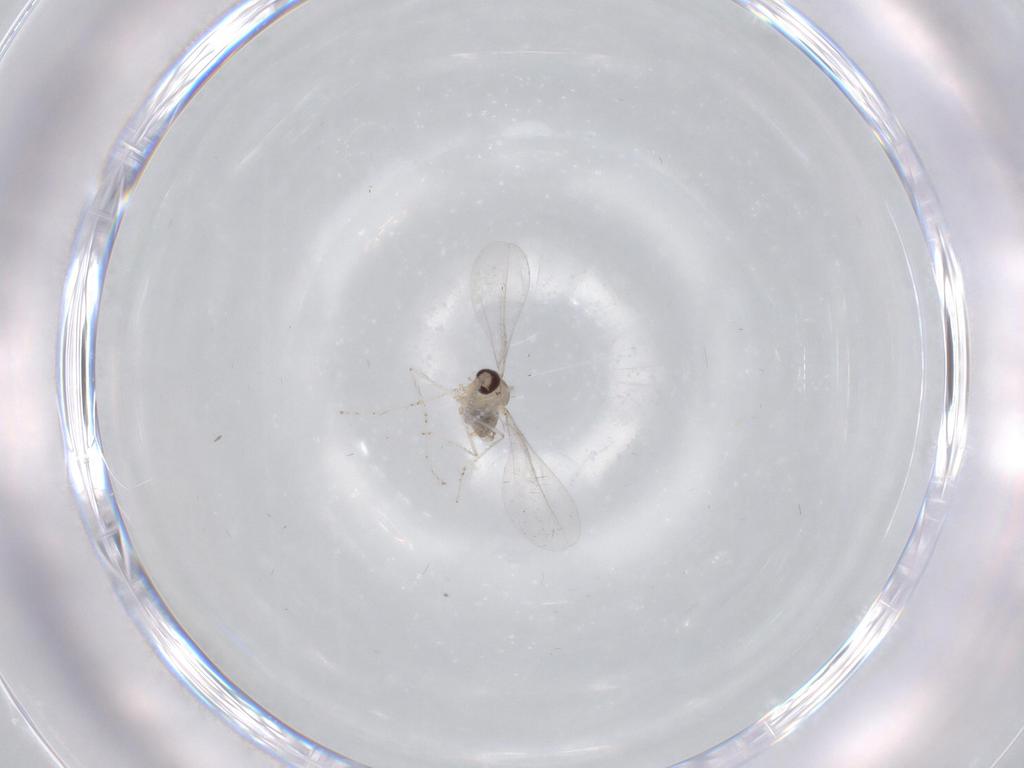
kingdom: Animalia
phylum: Arthropoda
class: Insecta
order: Diptera
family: Cecidomyiidae
